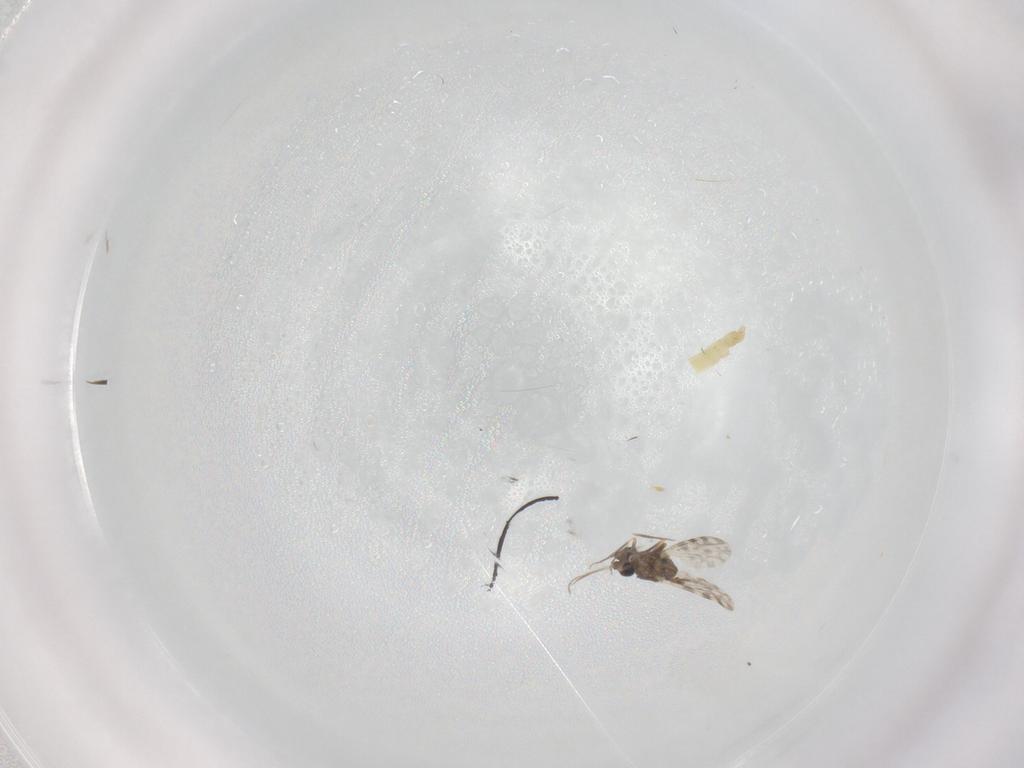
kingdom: Animalia
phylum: Arthropoda
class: Insecta
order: Diptera
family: Ceratopogonidae
